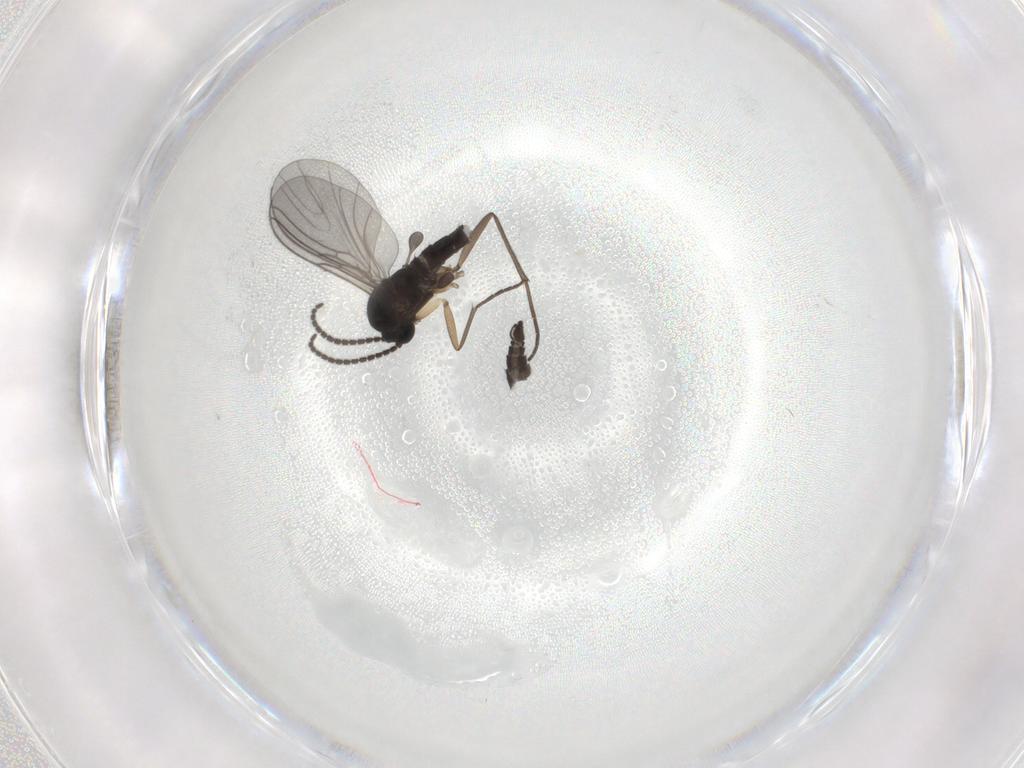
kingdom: Animalia
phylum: Arthropoda
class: Insecta
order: Diptera
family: Sciaridae
